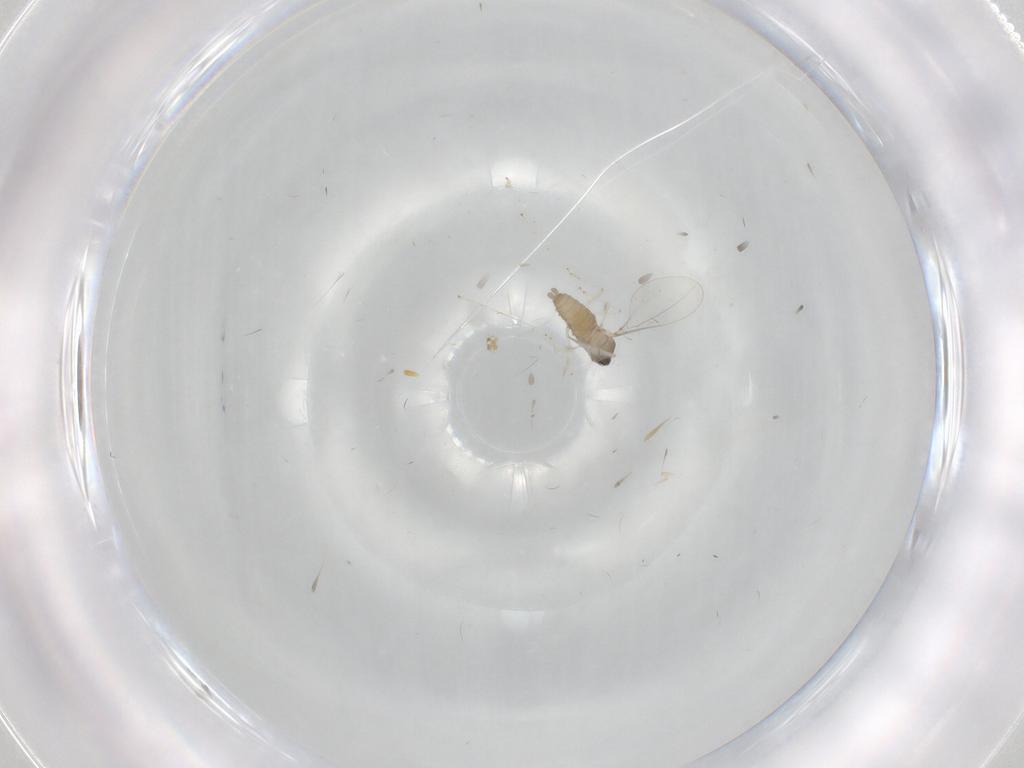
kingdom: Animalia
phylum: Arthropoda
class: Insecta
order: Diptera
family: Cecidomyiidae
